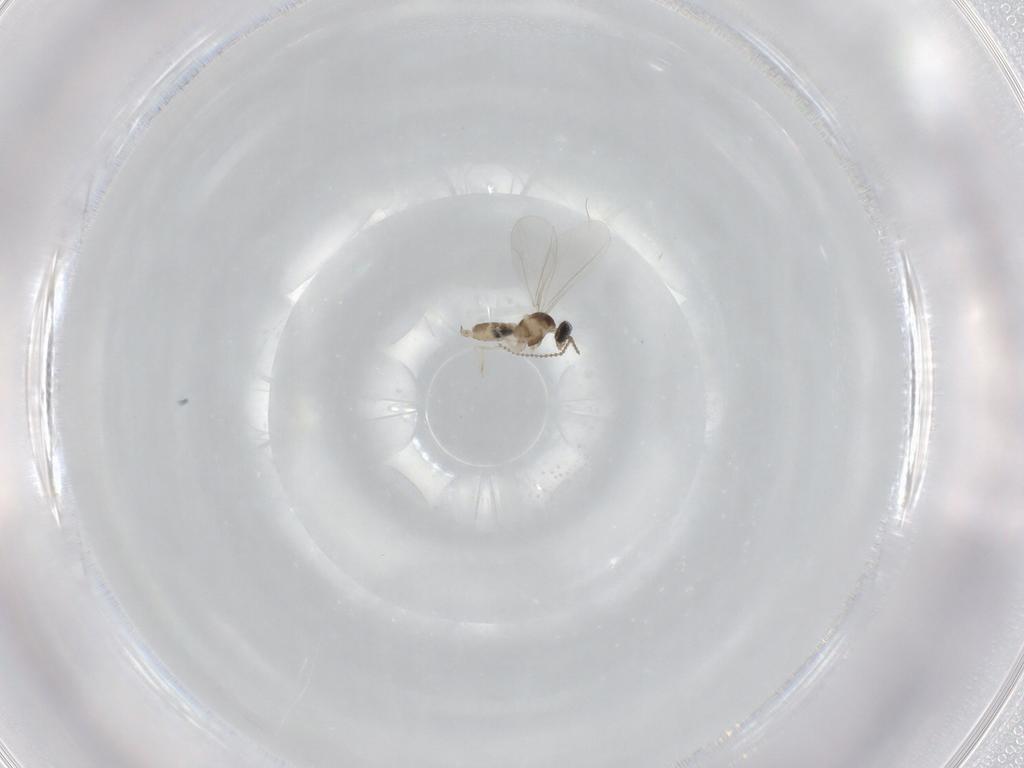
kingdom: Animalia
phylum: Arthropoda
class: Insecta
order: Diptera
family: Cecidomyiidae
